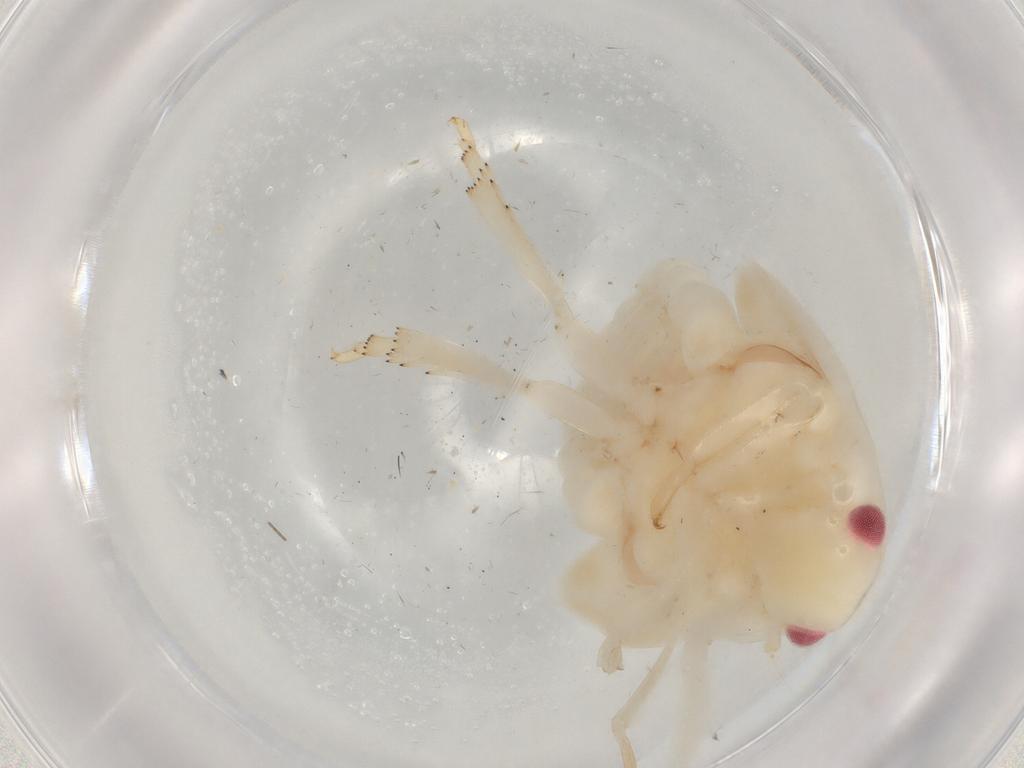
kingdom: Animalia
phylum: Arthropoda
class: Insecta
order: Hemiptera
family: Flatidae
